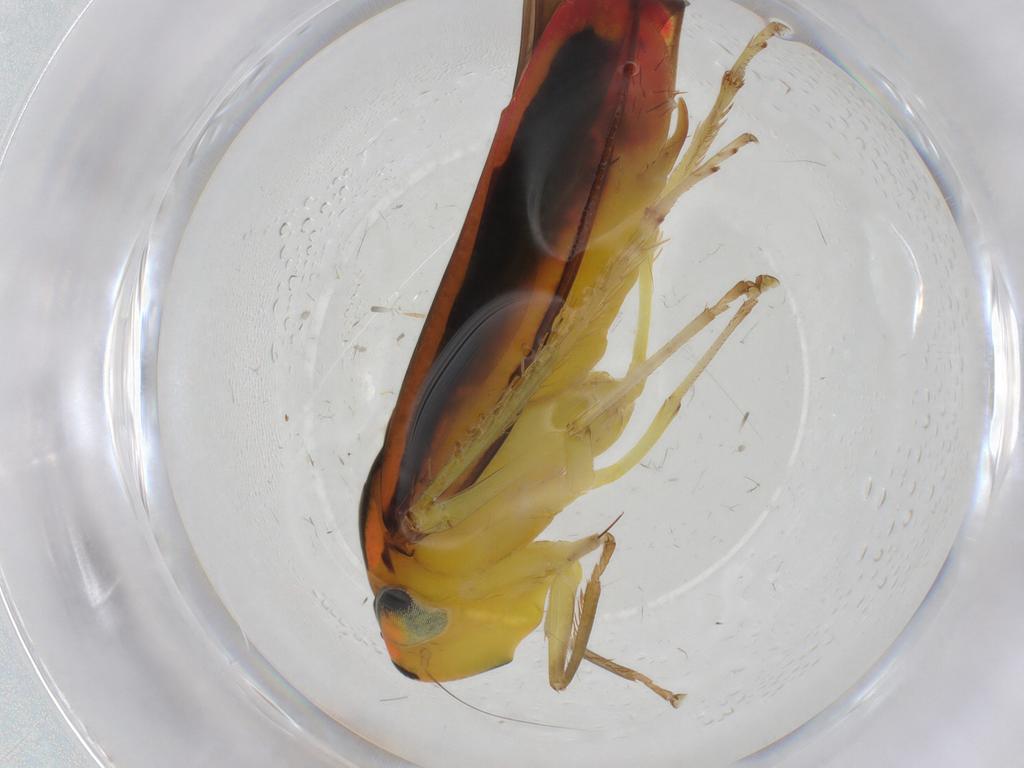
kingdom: Animalia
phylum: Arthropoda
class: Insecta
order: Hemiptera
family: Cicadellidae
